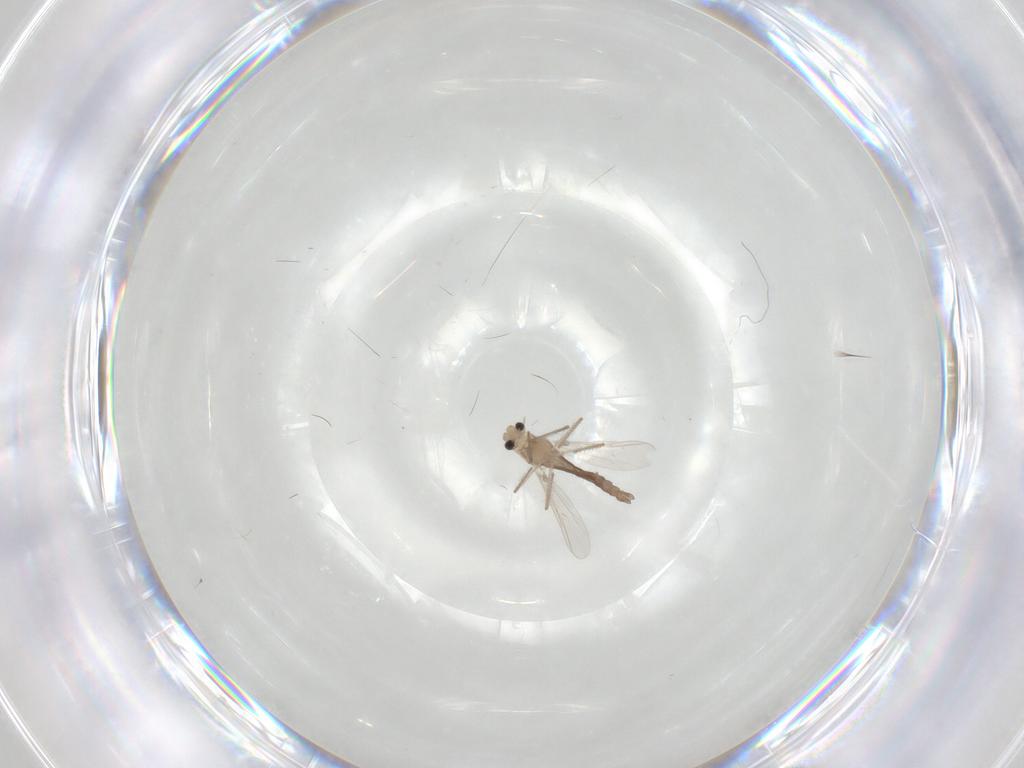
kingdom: Animalia
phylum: Arthropoda
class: Insecta
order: Diptera
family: Chironomidae
